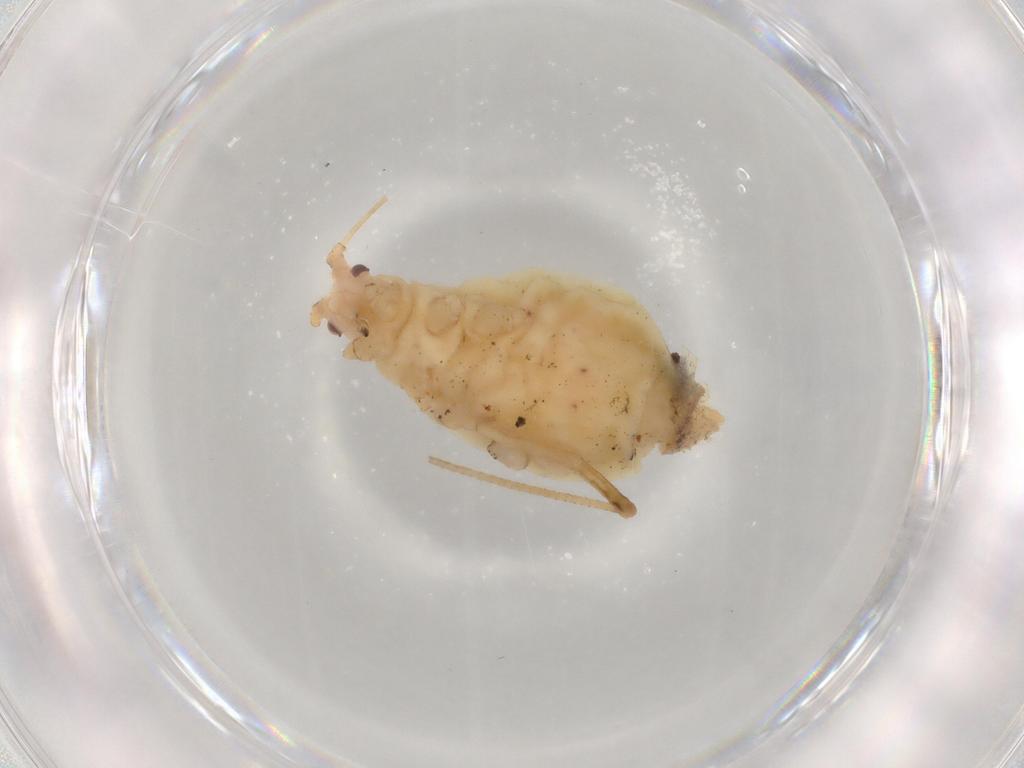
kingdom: Animalia
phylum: Arthropoda
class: Insecta
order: Hemiptera
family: Aphididae
